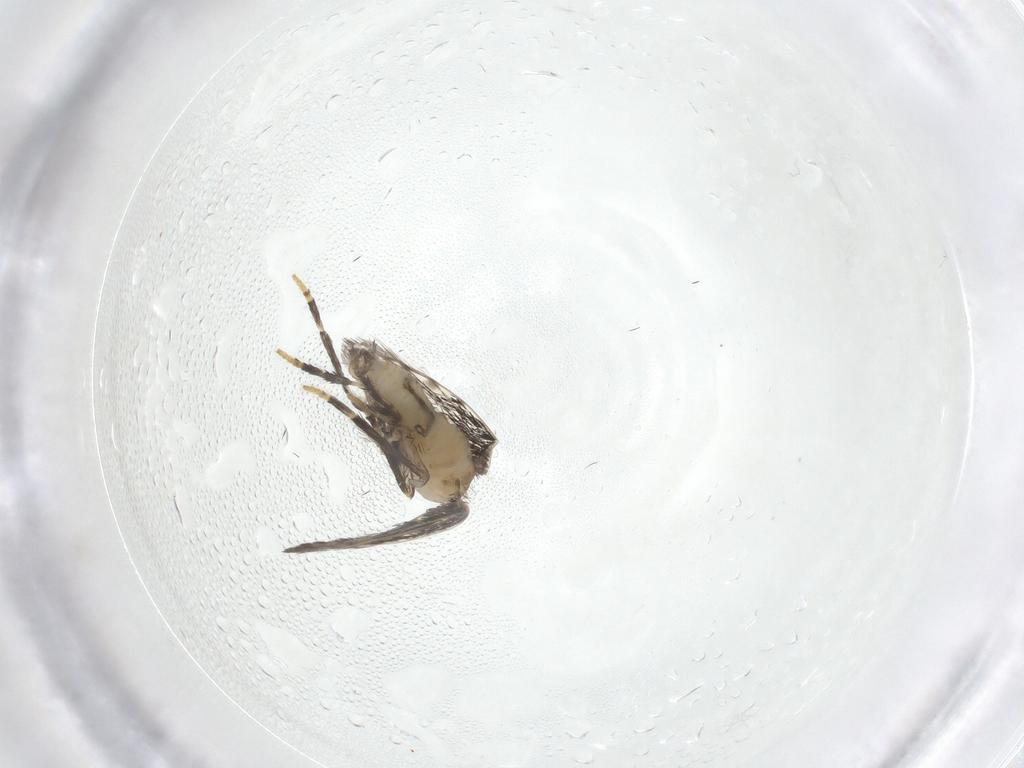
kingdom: Animalia
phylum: Arthropoda
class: Insecta
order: Diptera
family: Psychodidae
